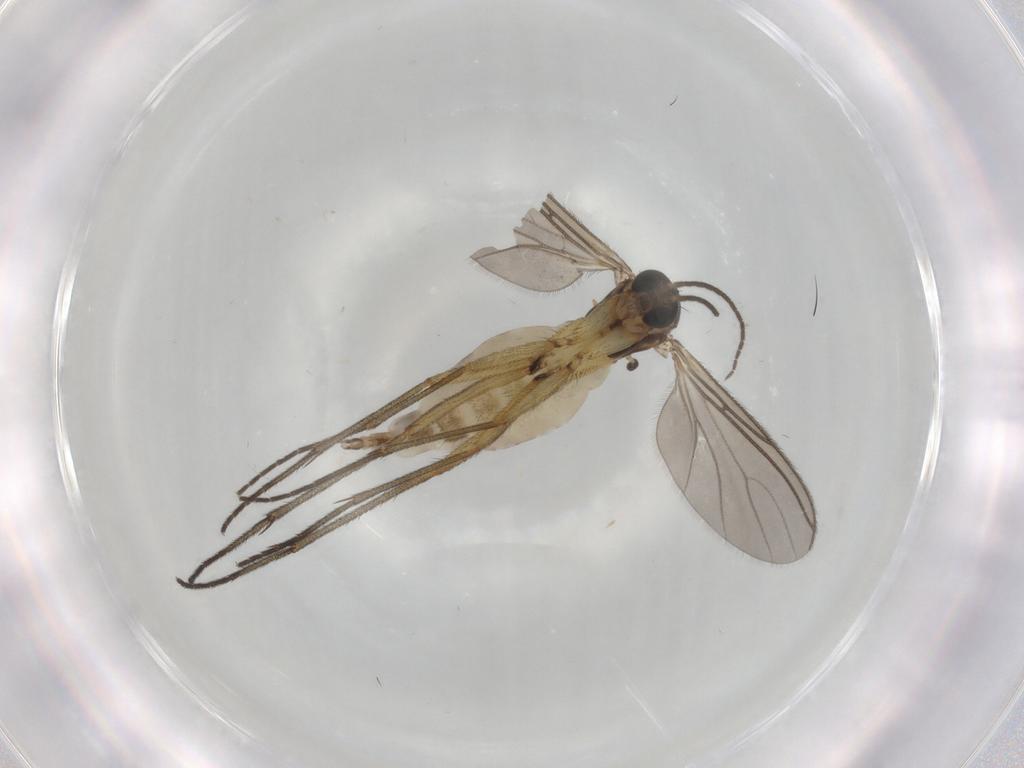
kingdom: Animalia
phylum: Arthropoda
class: Insecta
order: Diptera
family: Sciaridae
